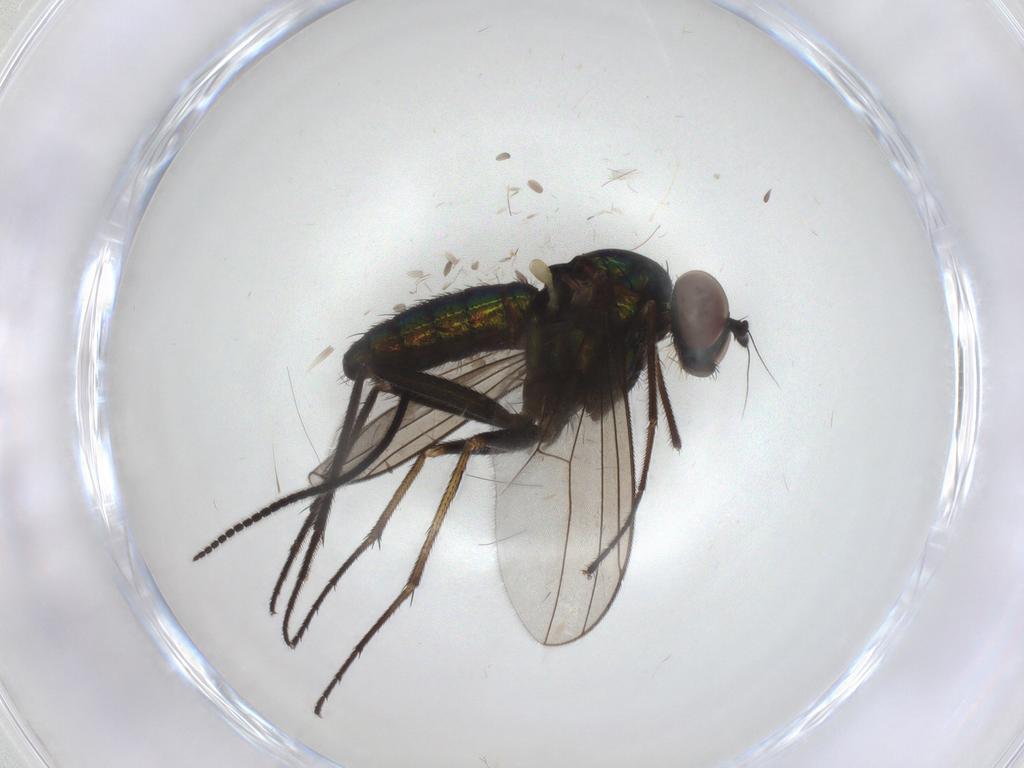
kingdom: Animalia
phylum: Arthropoda
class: Insecta
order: Diptera
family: Dolichopodidae
